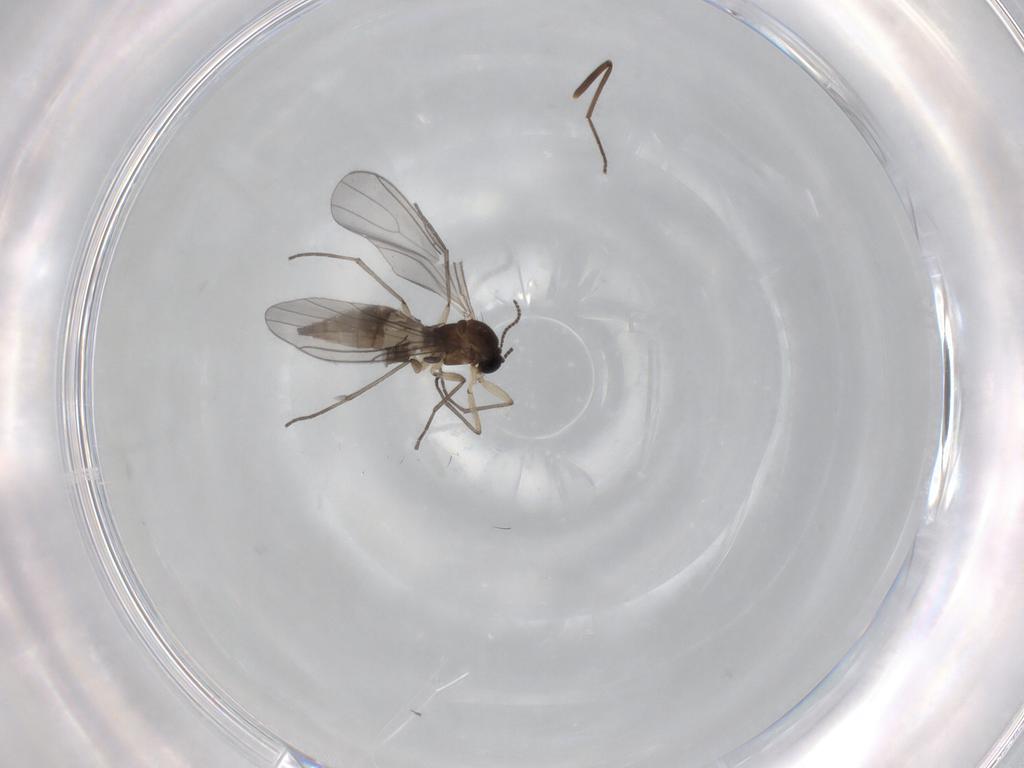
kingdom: Animalia
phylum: Arthropoda
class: Insecta
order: Diptera
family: Sciaridae
